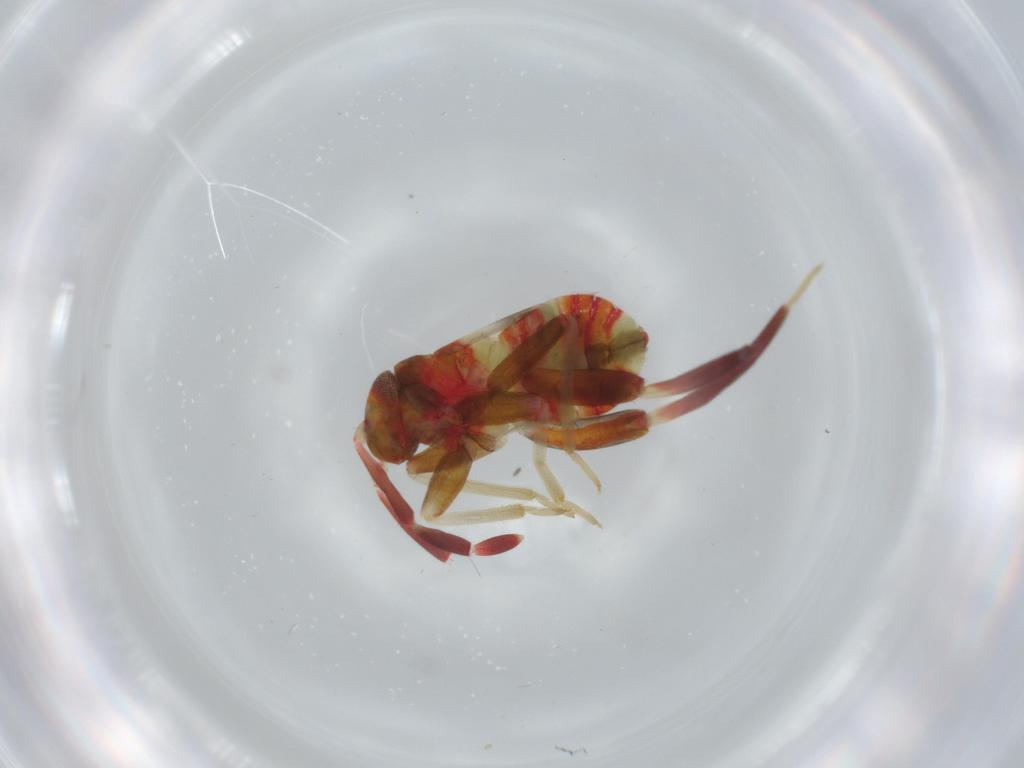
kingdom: Animalia
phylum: Arthropoda
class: Insecta
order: Hemiptera
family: Miridae
